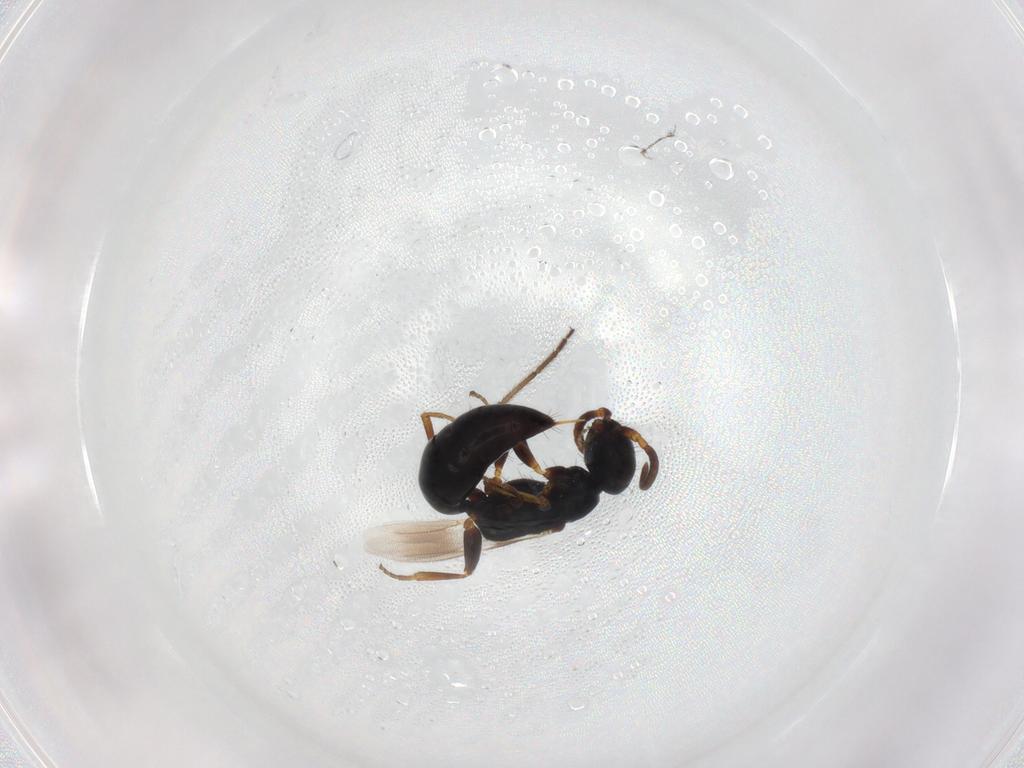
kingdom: Animalia
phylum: Arthropoda
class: Insecta
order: Hymenoptera
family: Bethylidae
